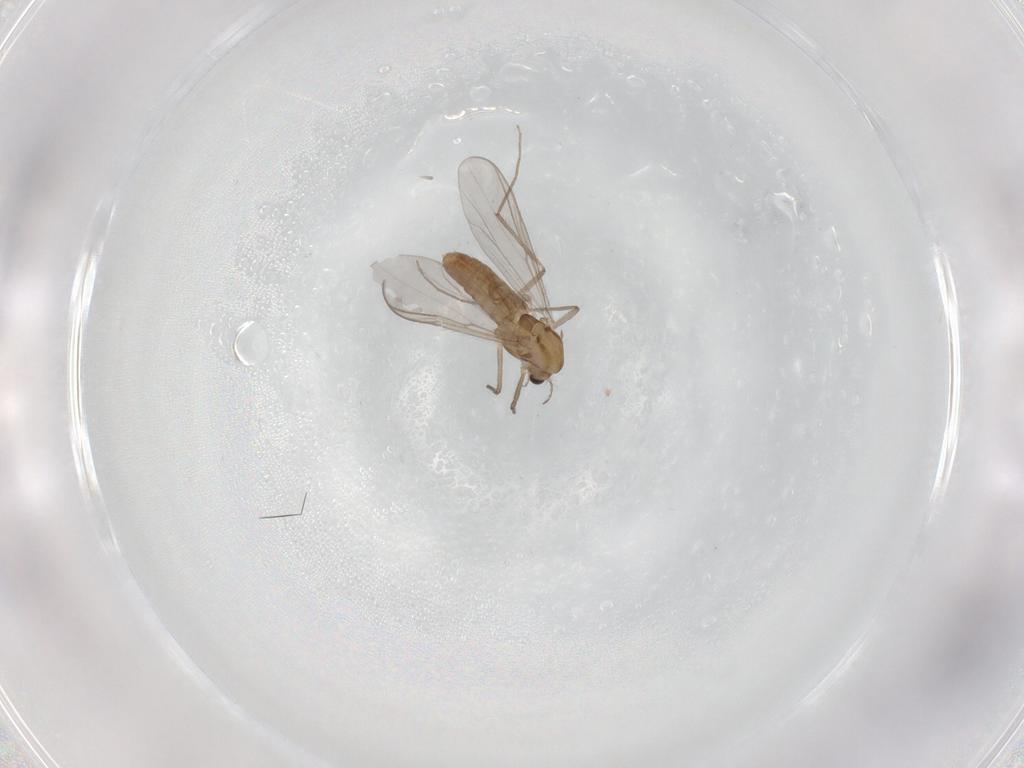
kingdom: Animalia
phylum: Arthropoda
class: Insecta
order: Diptera
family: Chironomidae
